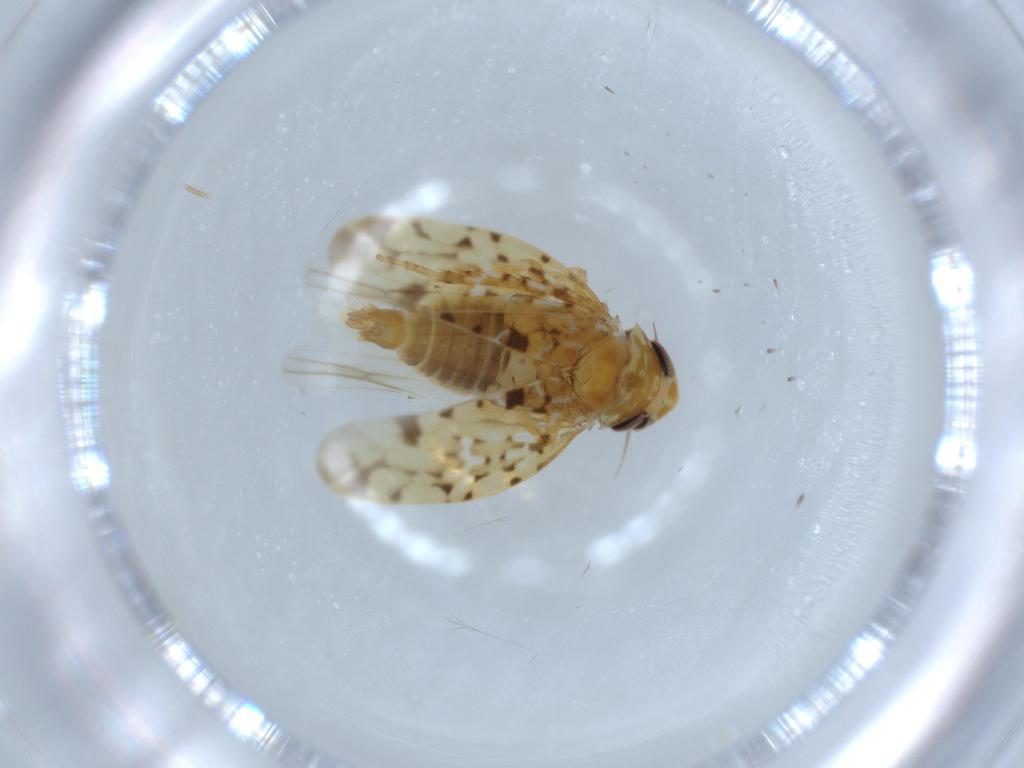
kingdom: Animalia
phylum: Arthropoda
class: Insecta
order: Hemiptera
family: Cicadellidae
